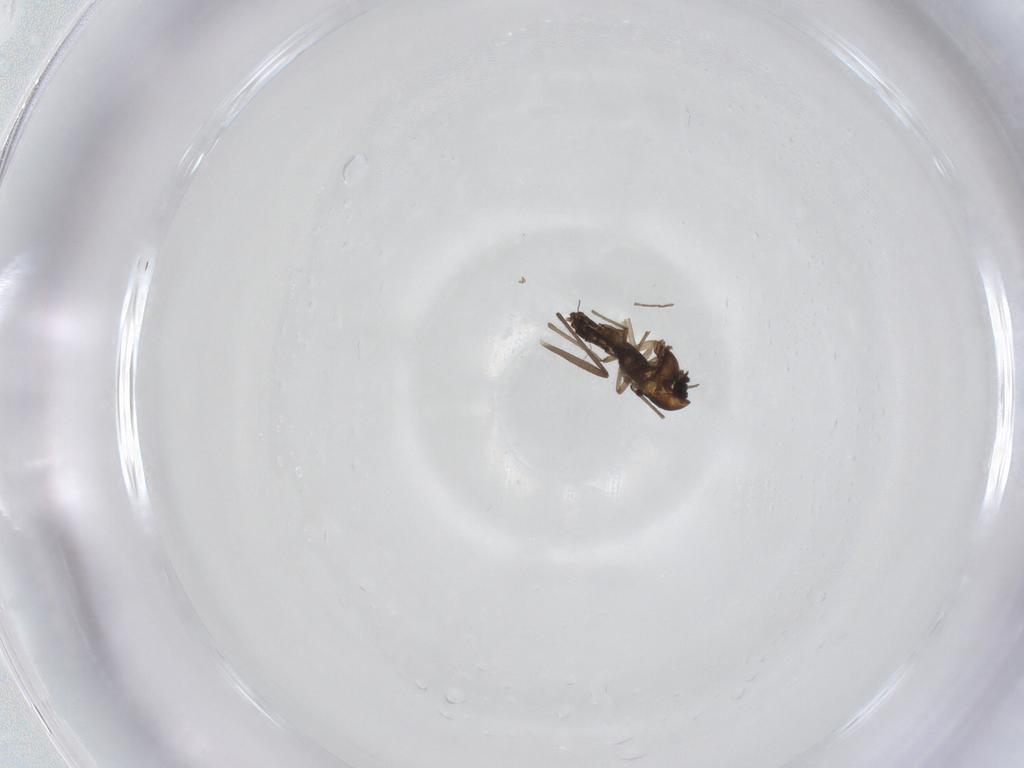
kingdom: Animalia
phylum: Arthropoda
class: Insecta
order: Diptera
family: Chironomidae
